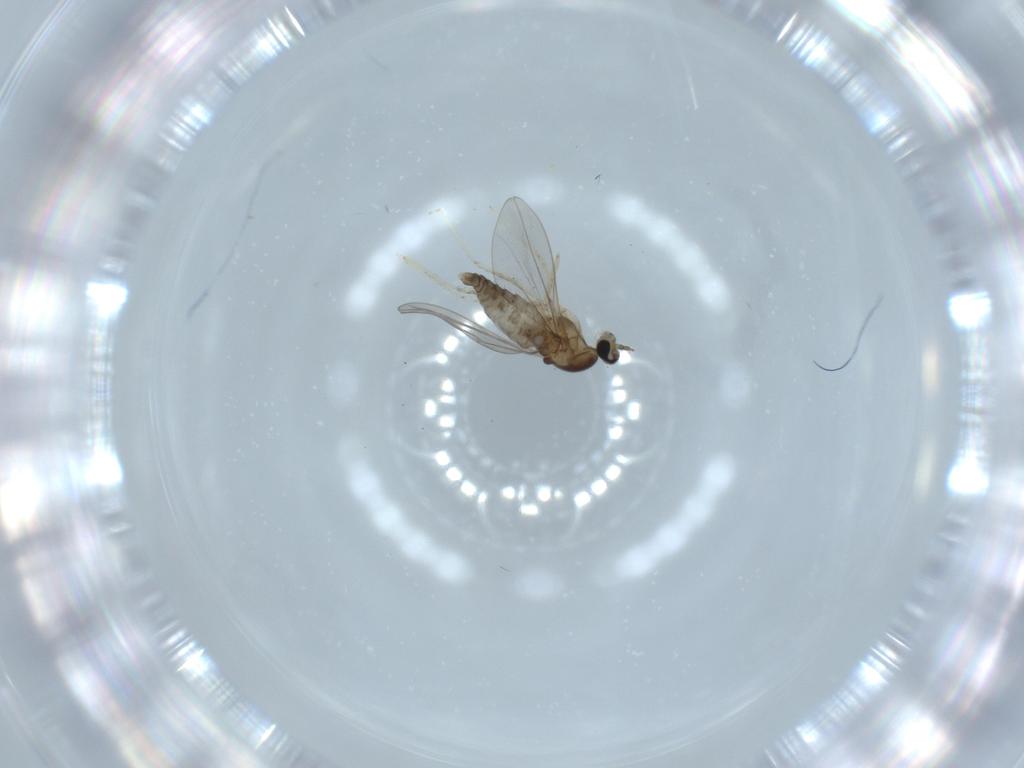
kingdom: Animalia
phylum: Arthropoda
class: Insecta
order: Diptera
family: Cecidomyiidae
